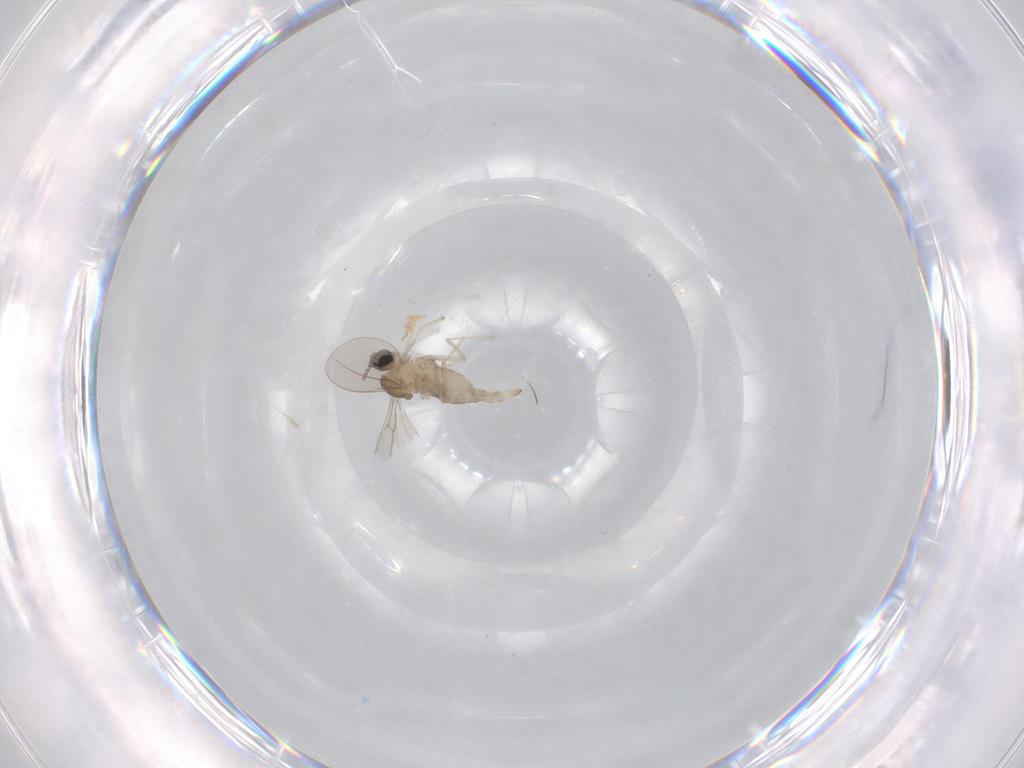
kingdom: Animalia
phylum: Arthropoda
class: Insecta
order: Diptera
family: Cecidomyiidae
